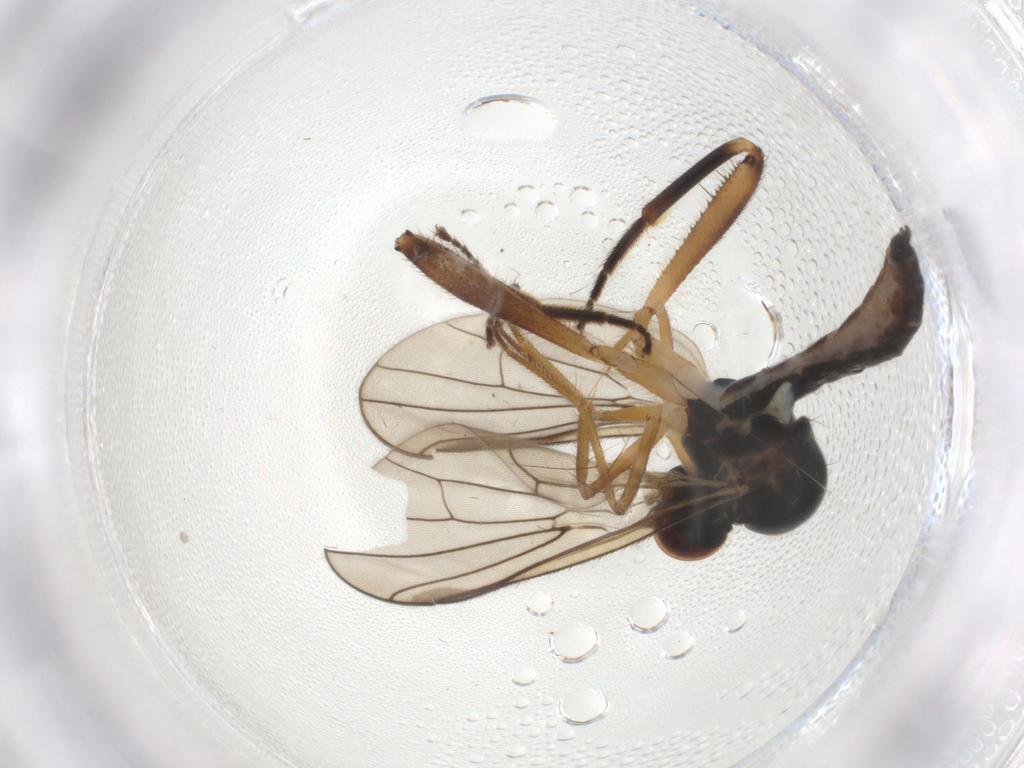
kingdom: Animalia
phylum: Arthropoda
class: Insecta
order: Diptera
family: Hybotidae
